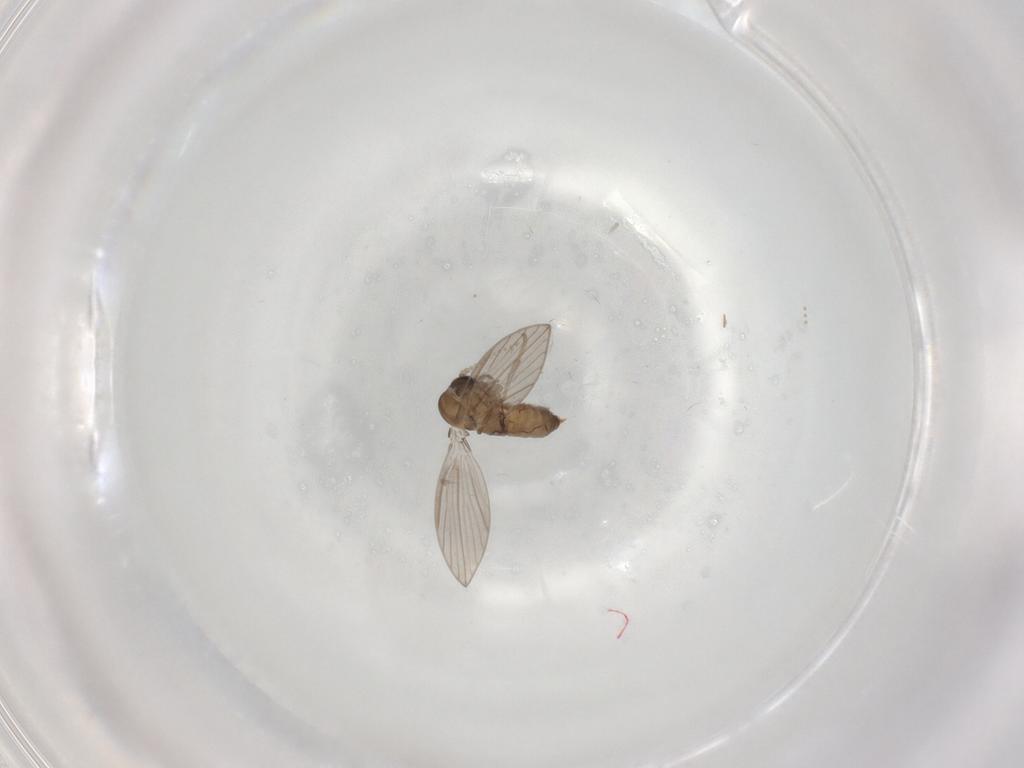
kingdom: Animalia
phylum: Arthropoda
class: Insecta
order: Diptera
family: Psychodidae
